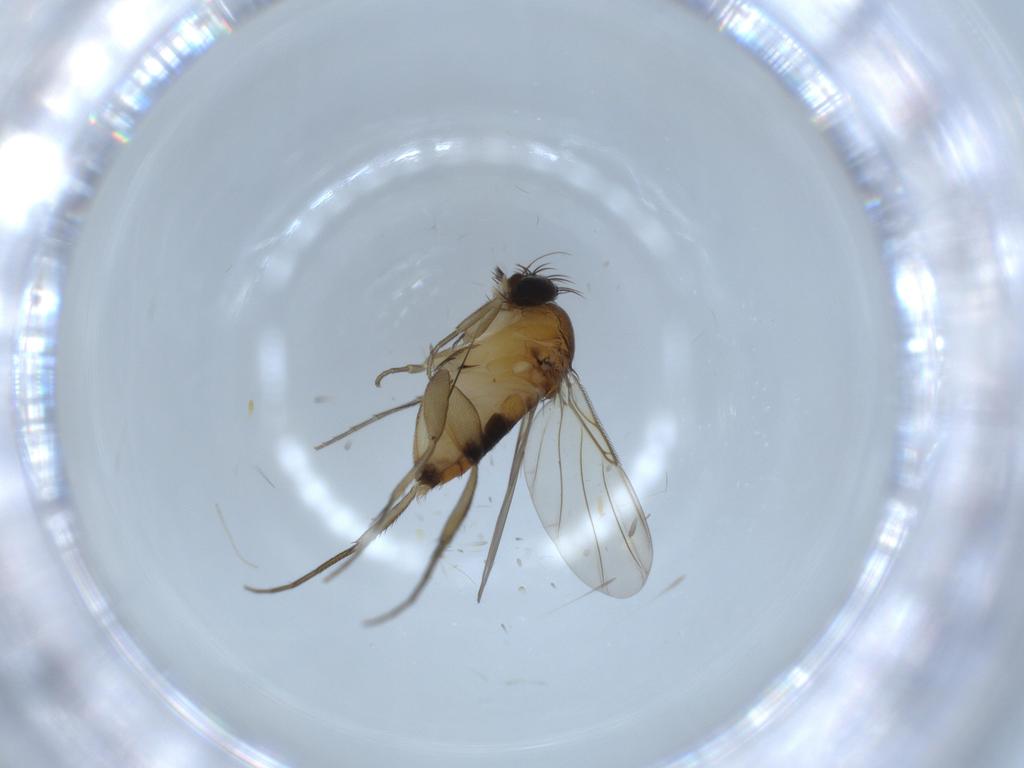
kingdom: Animalia
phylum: Arthropoda
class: Insecta
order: Diptera
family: Phoridae
